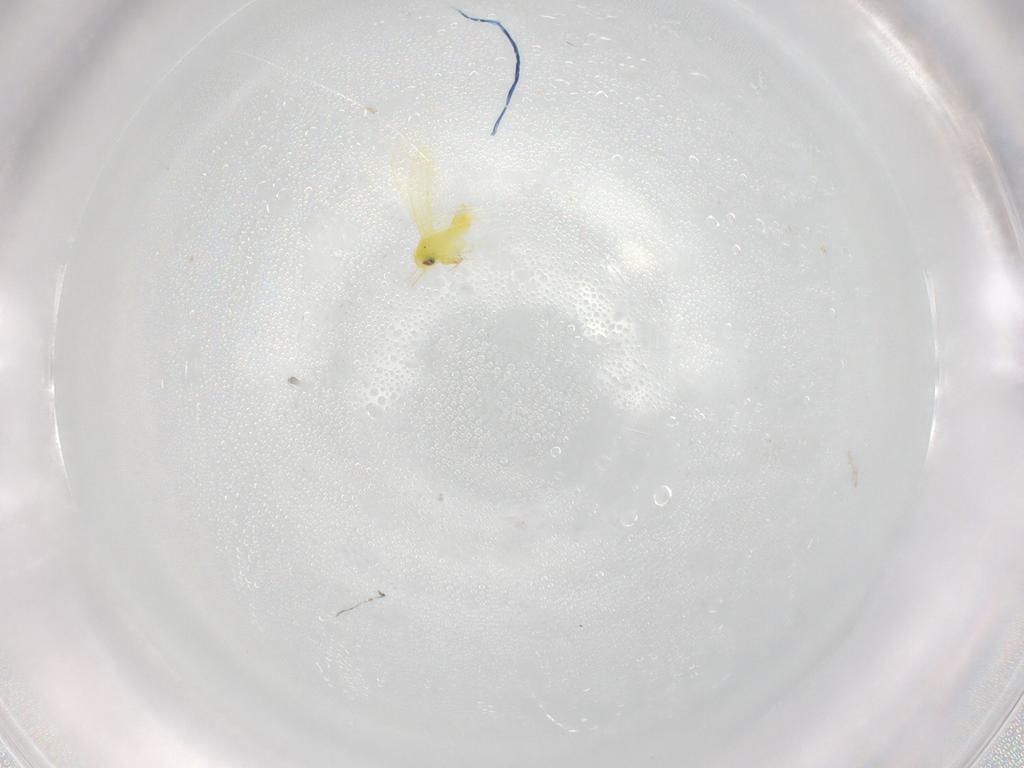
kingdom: Animalia
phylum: Arthropoda
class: Insecta
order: Hemiptera
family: Aleyrodidae
